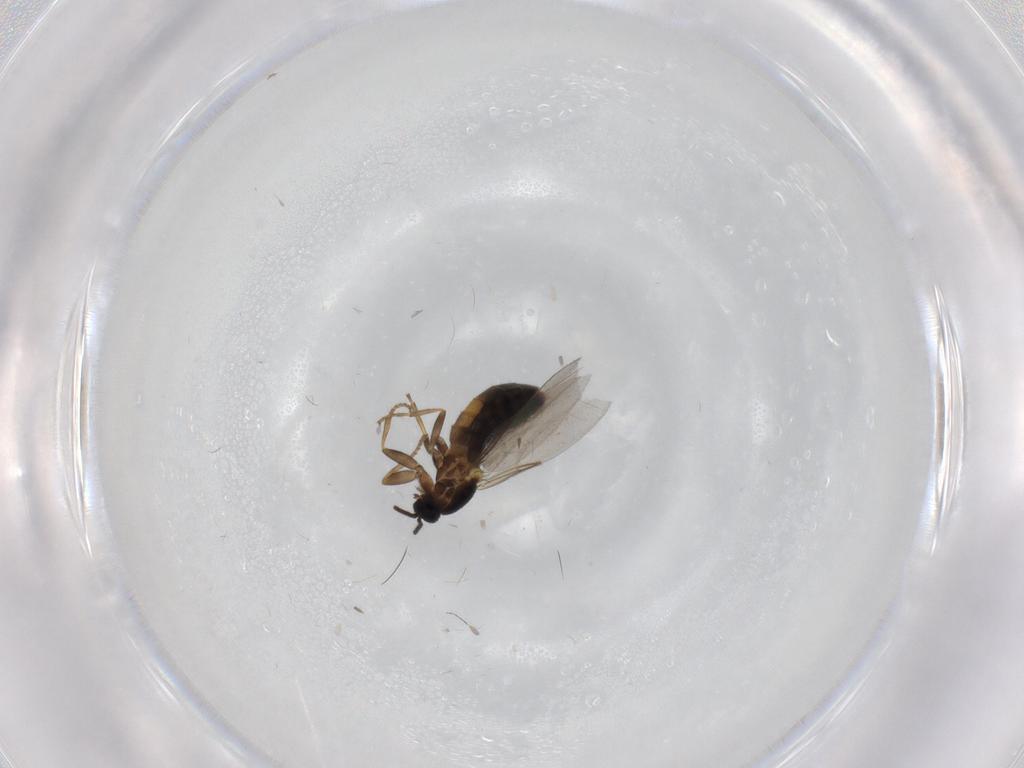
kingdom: Animalia
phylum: Arthropoda
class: Insecta
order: Diptera
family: Scatopsidae
